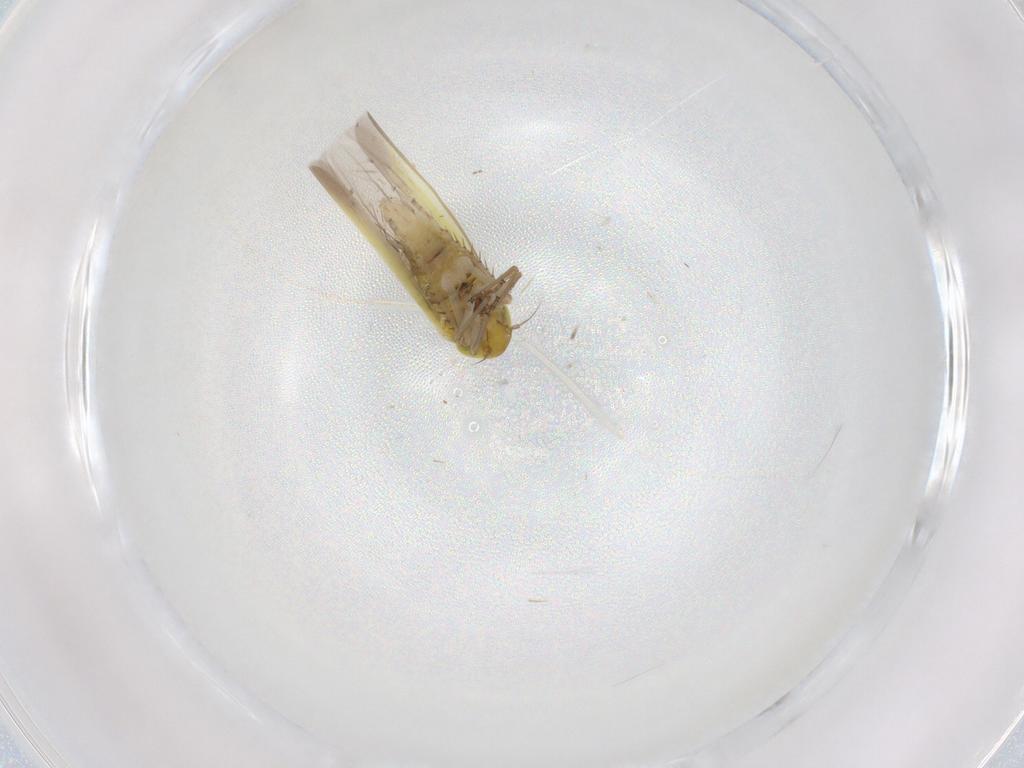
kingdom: Animalia
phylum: Arthropoda
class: Insecta
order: Hemiptera
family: Cicadellidae
